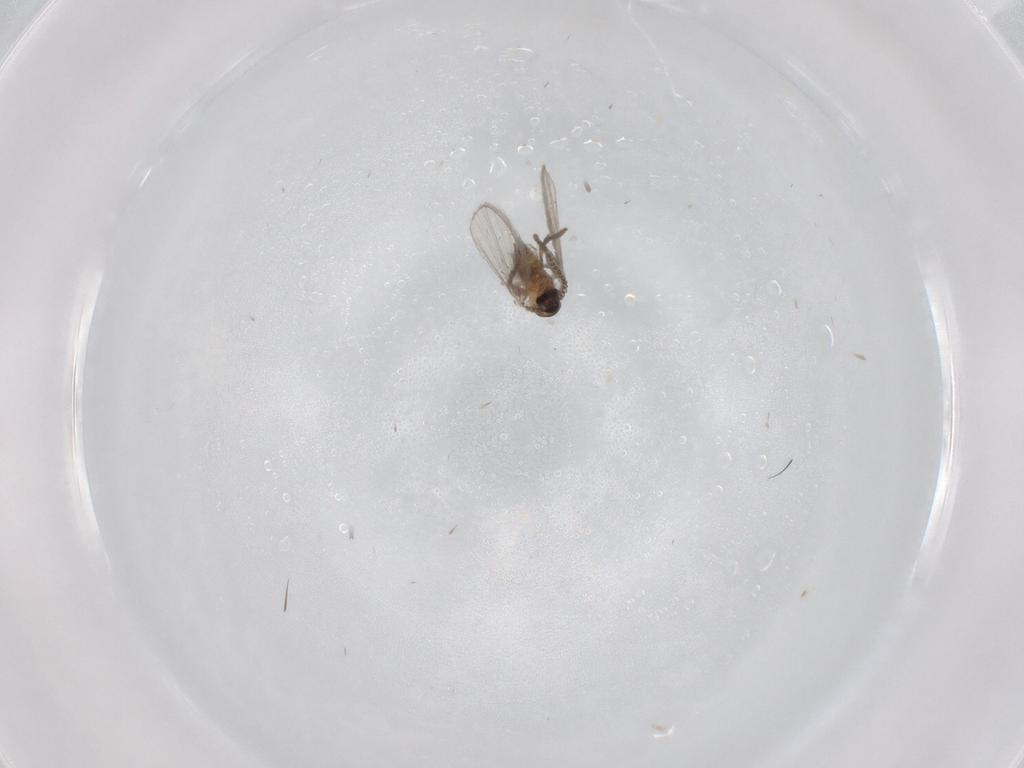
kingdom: Animalia
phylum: Arthropoda
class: Insecta
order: Diptera
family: Psychodidae
